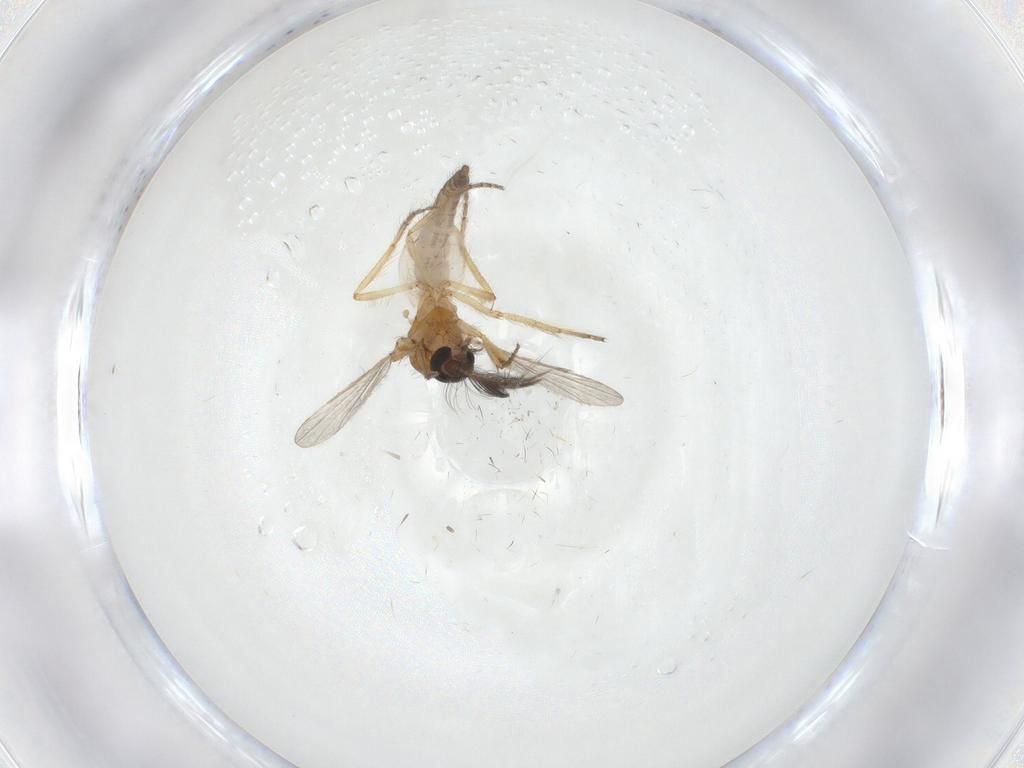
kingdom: Animalia
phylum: Arthropoda
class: Insecta
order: Diptera
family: Ceratopogonidae
